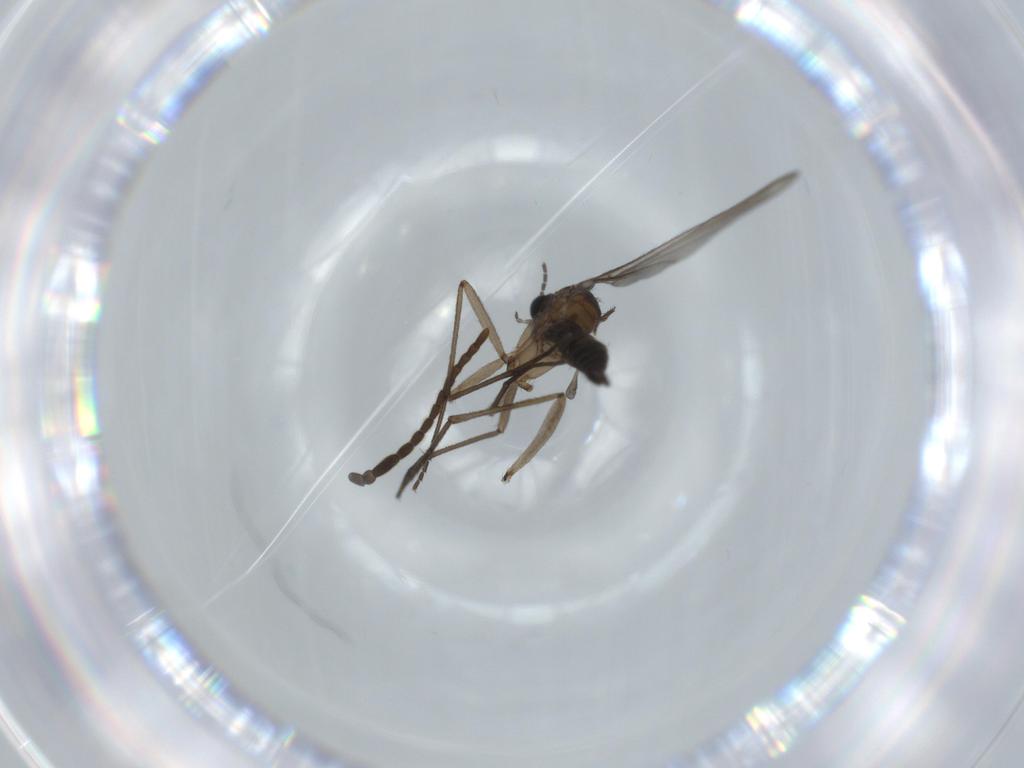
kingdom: Animalia
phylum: Arthropoda
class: Insecta
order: Diptera
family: Sciaridae
